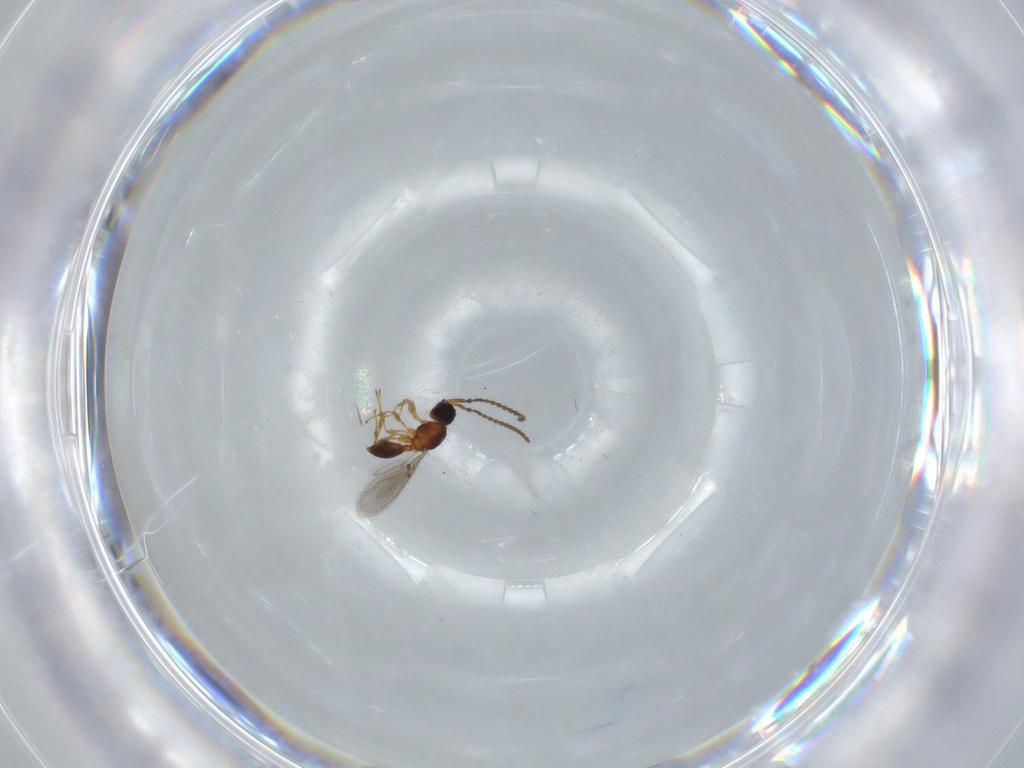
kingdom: Animalia
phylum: Arthropoda
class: Insecta
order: Hymenoptera
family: Diapriidae
